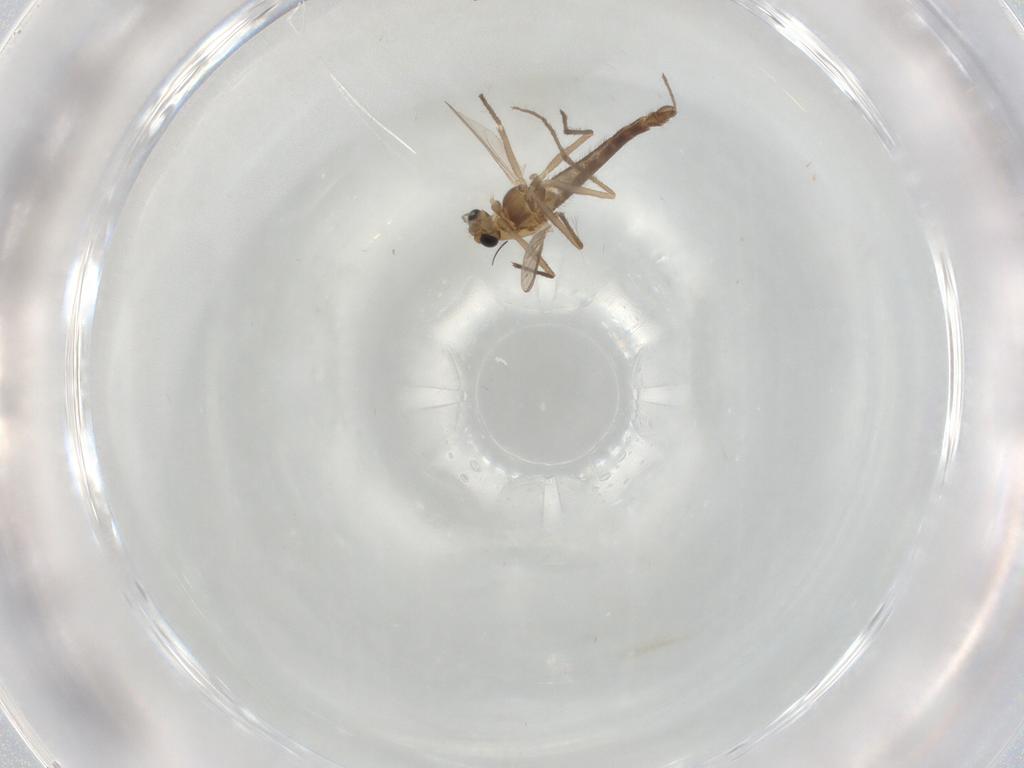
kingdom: Animalia
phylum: Arthropoda
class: Insecta
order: Diptera
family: Chironomidae
